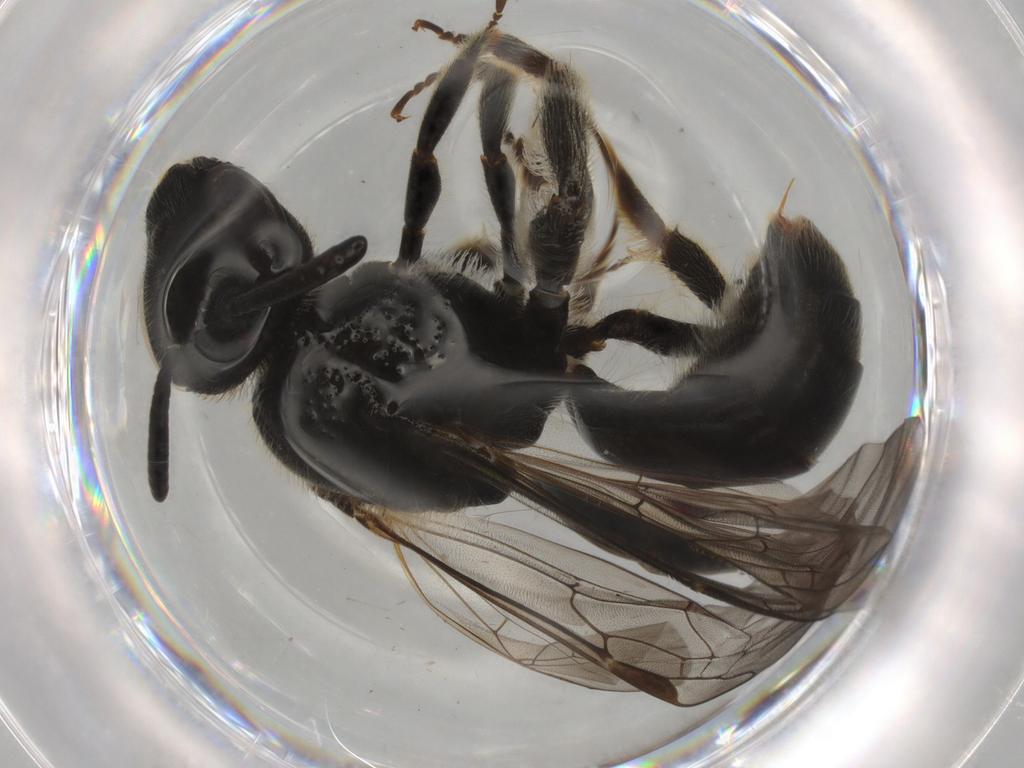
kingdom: Animalia
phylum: Arthropoda
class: Insecta
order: Hymenoptera
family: Halictidae
